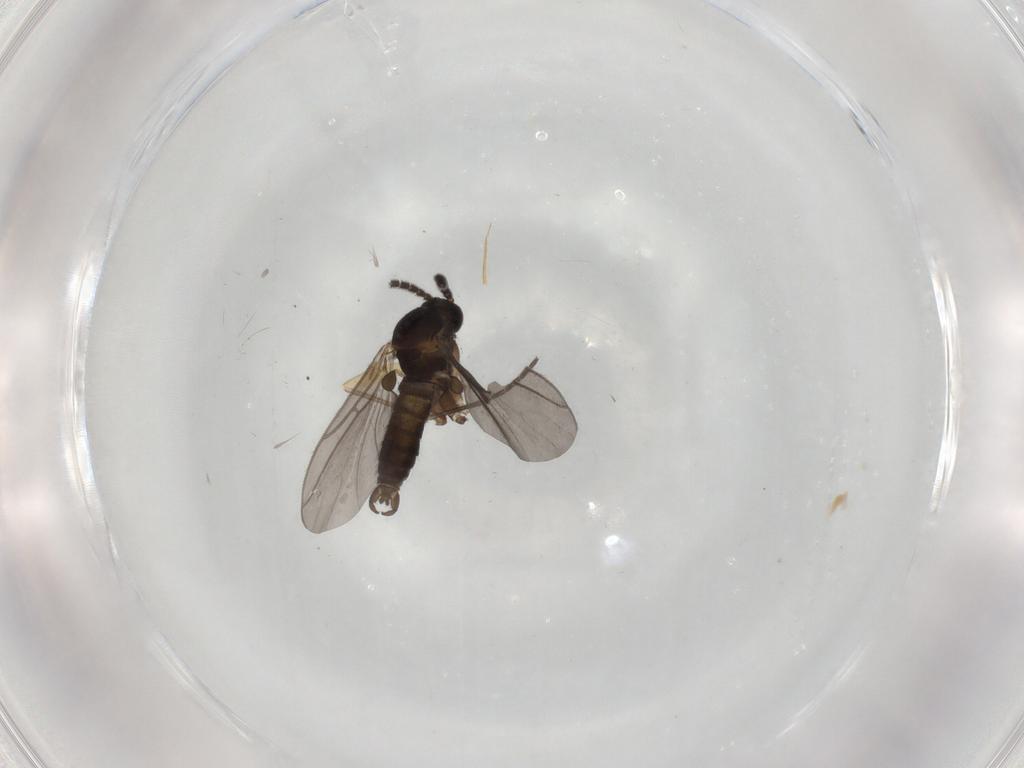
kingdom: Animalia
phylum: Arthropoda
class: Insecta
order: Diptera
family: Sciaridae
